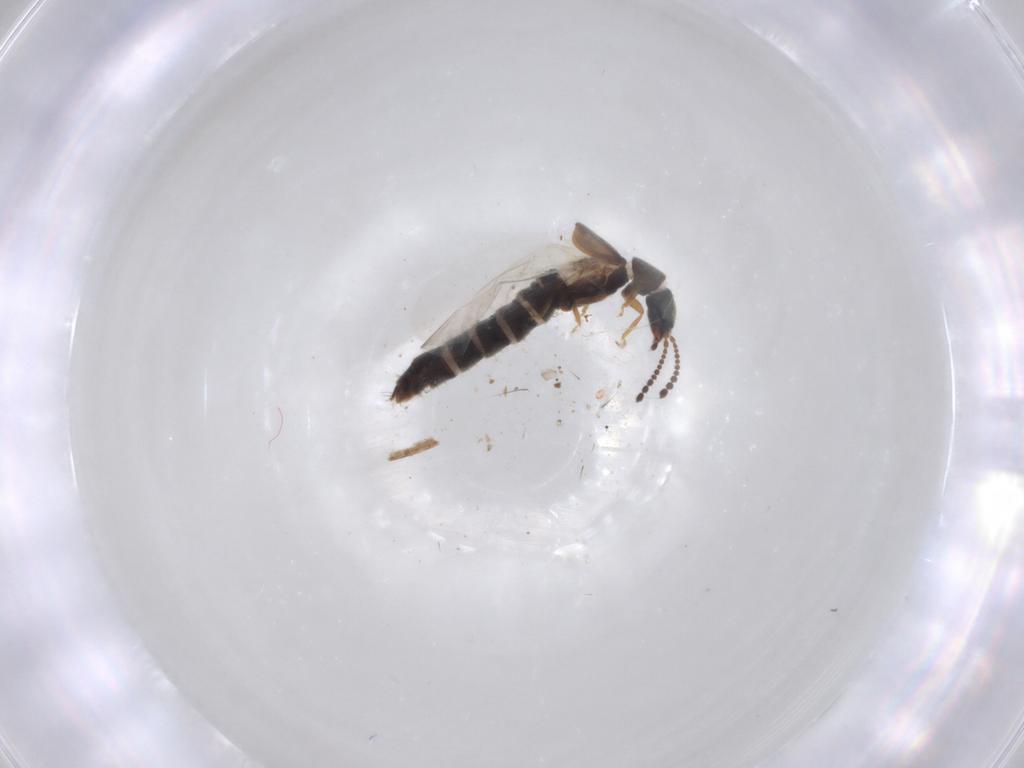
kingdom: Animalia
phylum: Arthropoda
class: Insecta
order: Coleoptera
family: Staphylinidae
